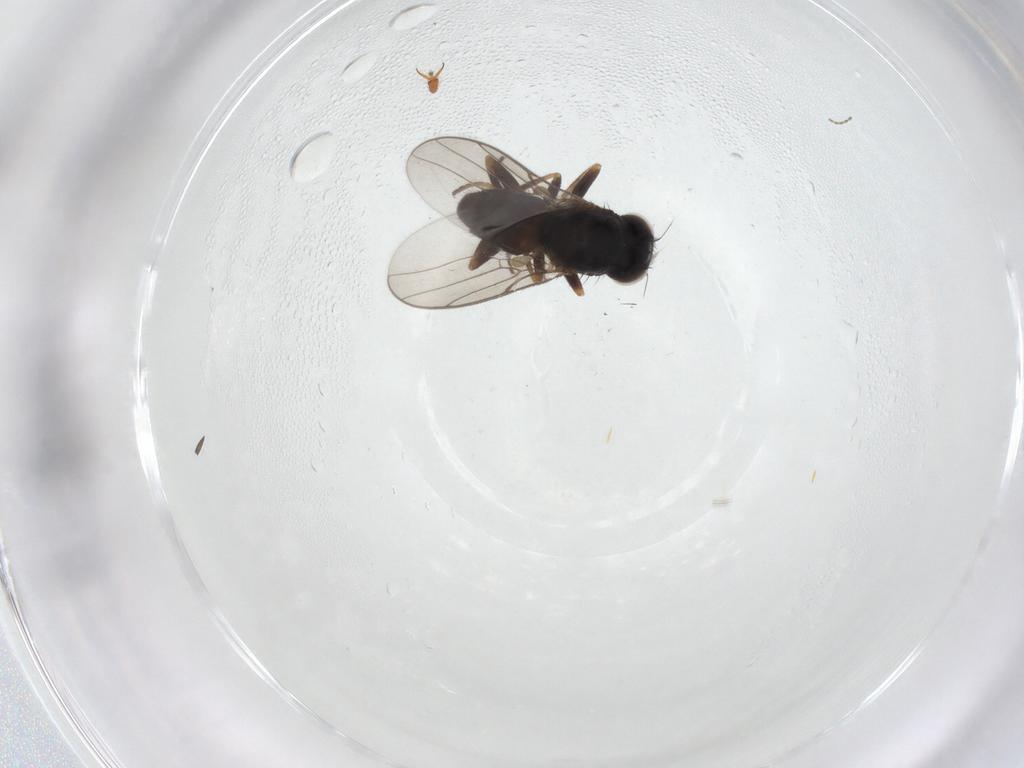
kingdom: Animalia
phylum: Arthropoda
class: Insecta
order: Diptera
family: Chloropidae
